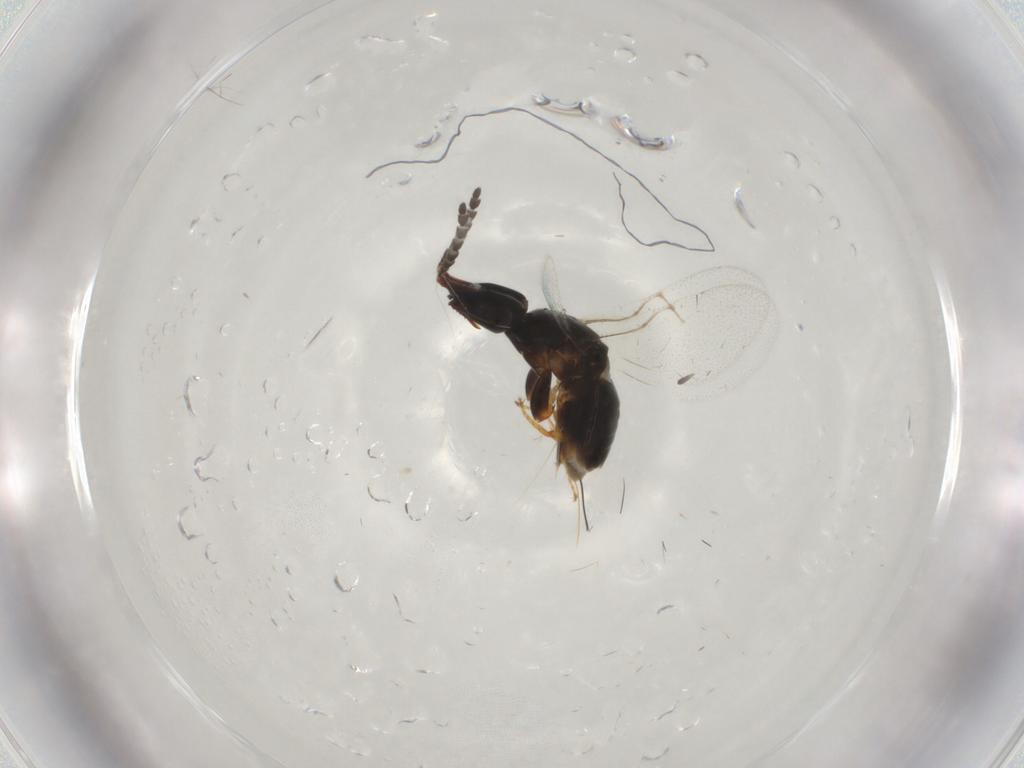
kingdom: Animalia
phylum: Arthropoda
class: Insecta
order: Hymenoptera
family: Agaonidae
